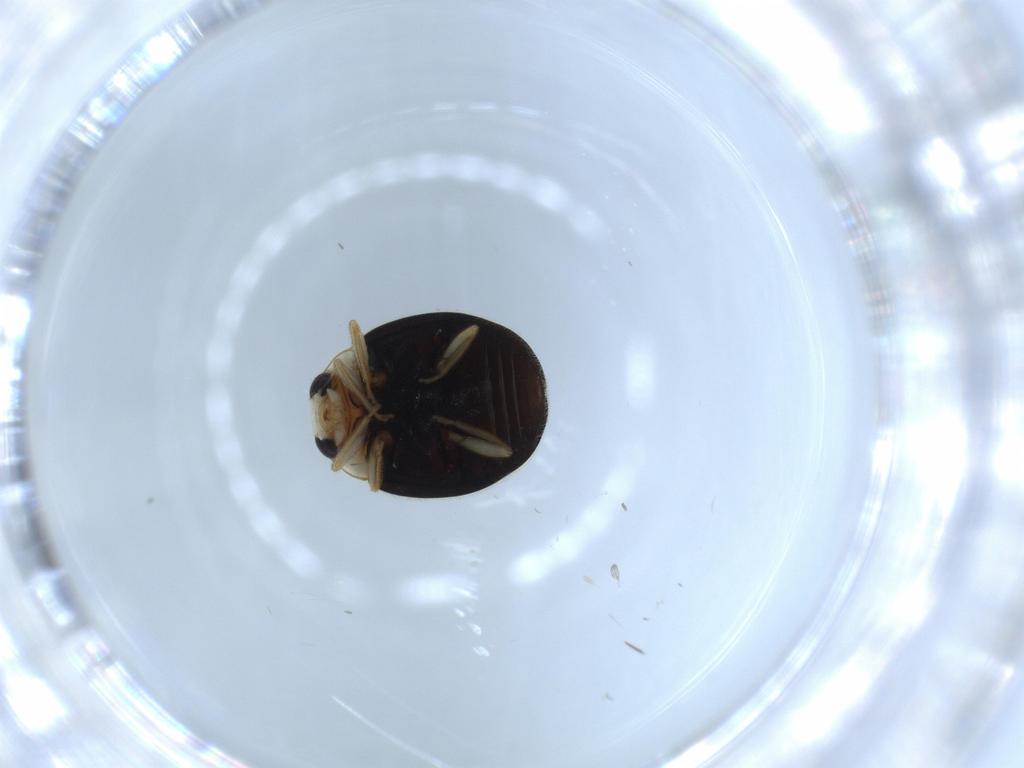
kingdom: Animalia
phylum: Arthropoda
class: Insecta
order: Coleoptera
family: Coccinellidae
